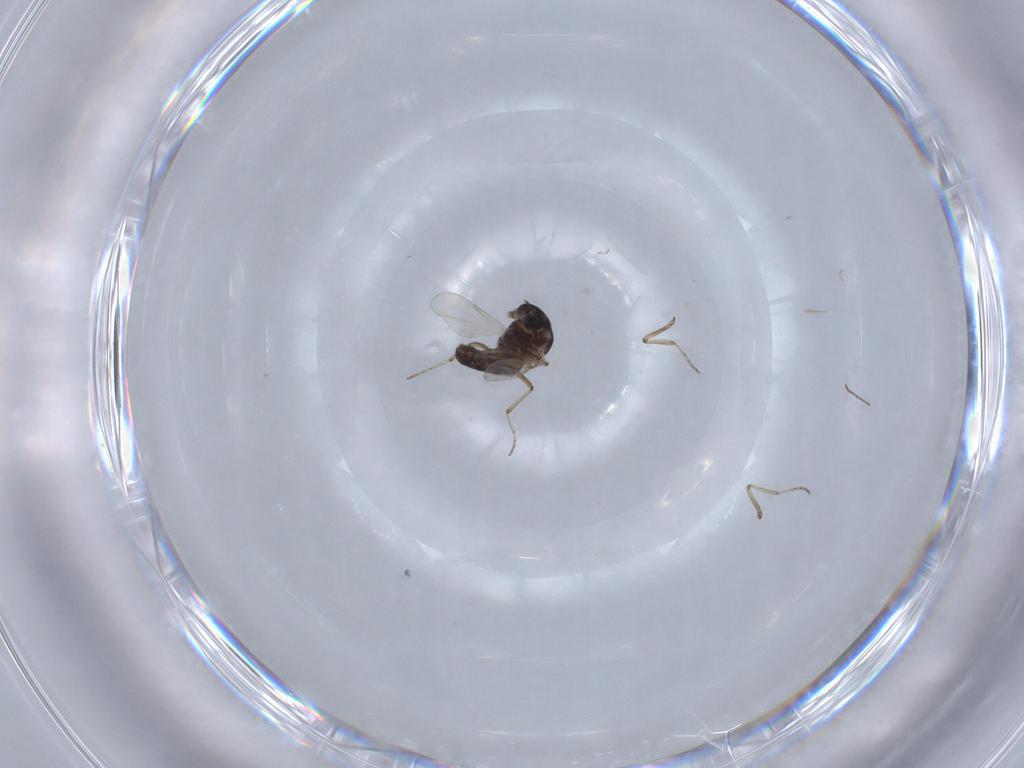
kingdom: Animalia
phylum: Arthropoda
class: Insecta
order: Diptera
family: Ceratopogonidae
